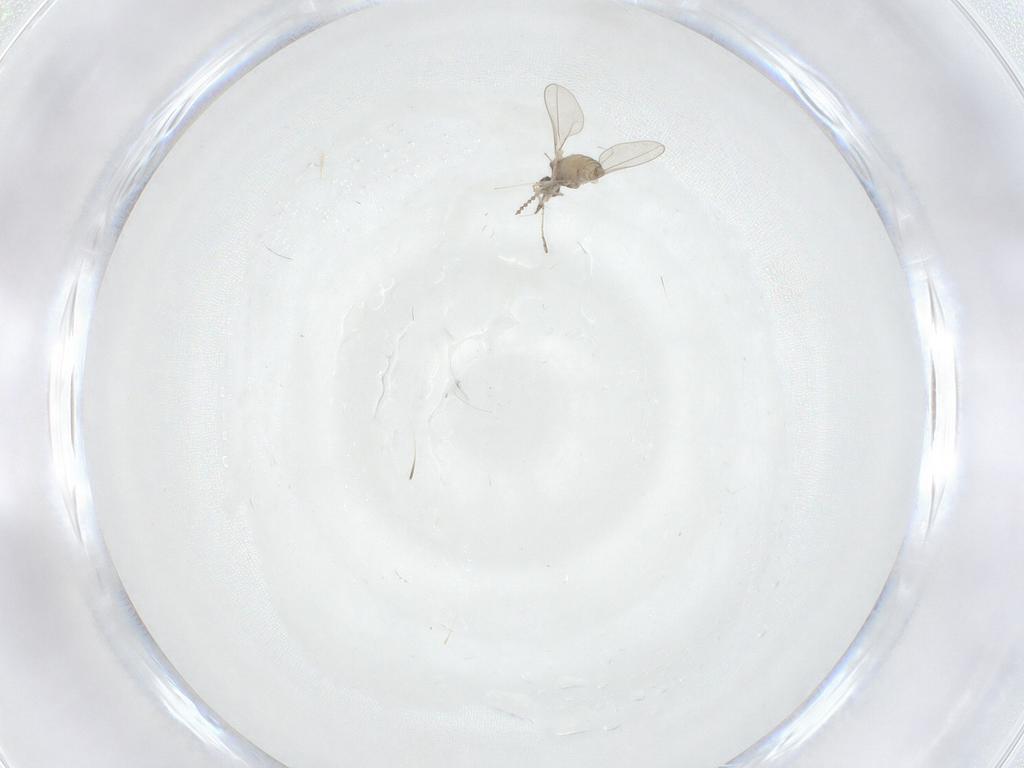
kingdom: Animalia
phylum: Arthropoda
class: Insecta
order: Diptera
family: Cecidomyiidae
